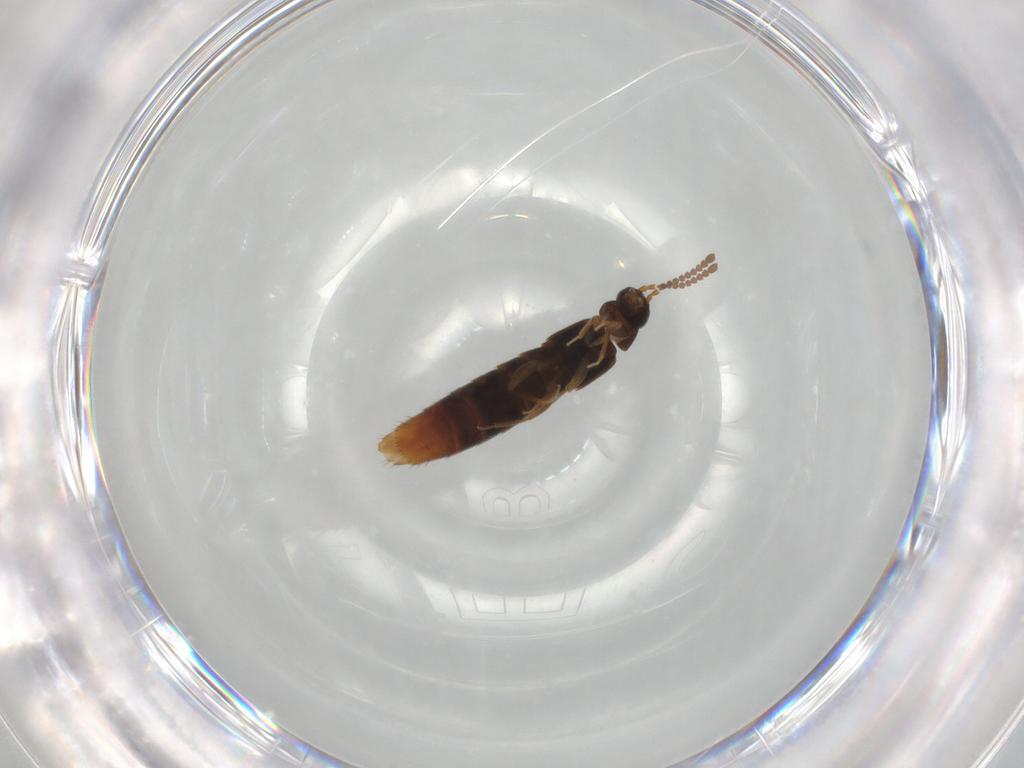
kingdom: Animalia
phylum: Arthropoda
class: Insecta
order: Coleoptera
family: Staphylinidae
